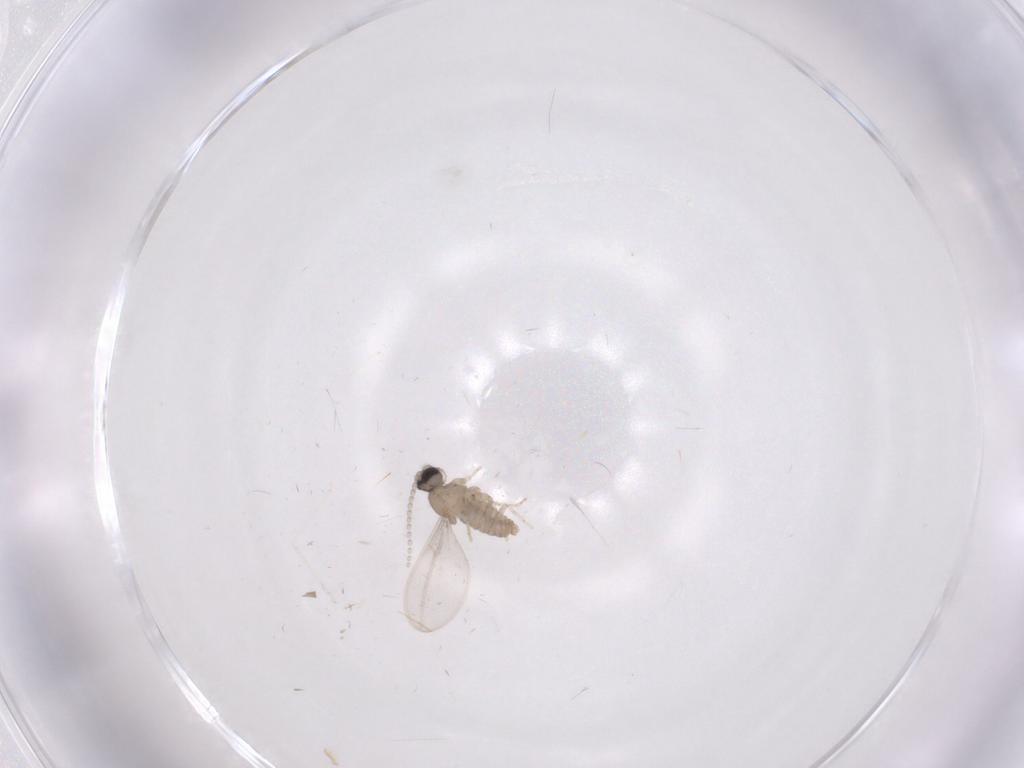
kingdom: Animalia
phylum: Arthropoda
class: Insecta
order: Diptera
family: Cecidomyiidae
